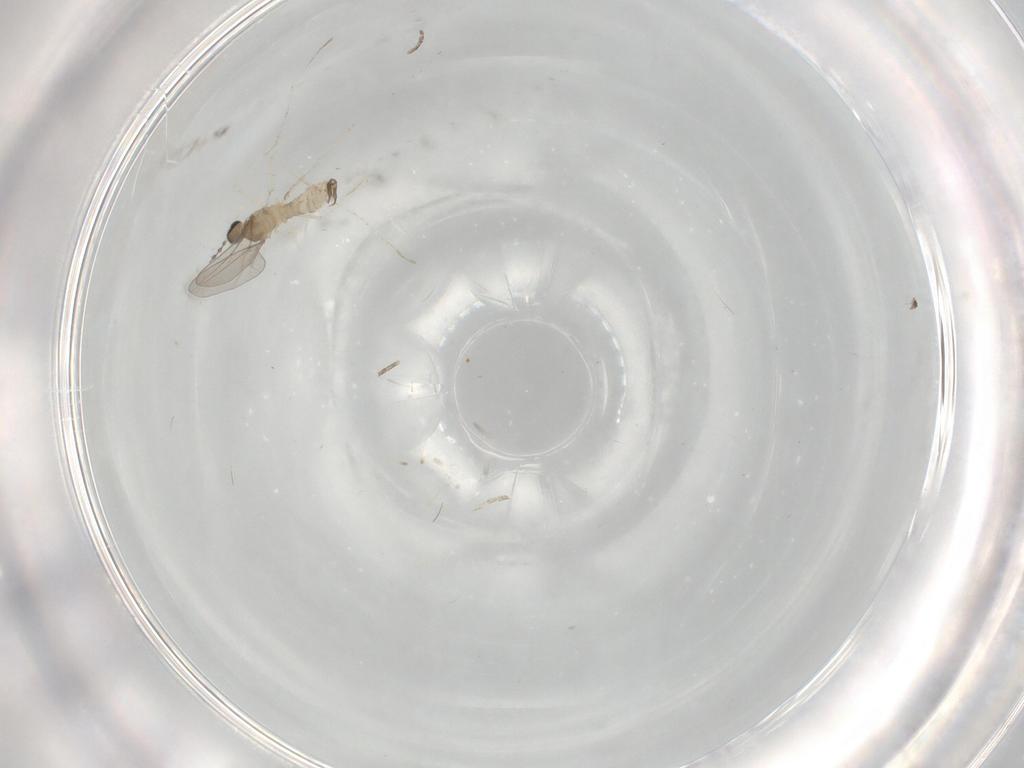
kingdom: Animalia
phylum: Arthropoda
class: Insecta
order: Diptera
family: Cecidomyiidae
